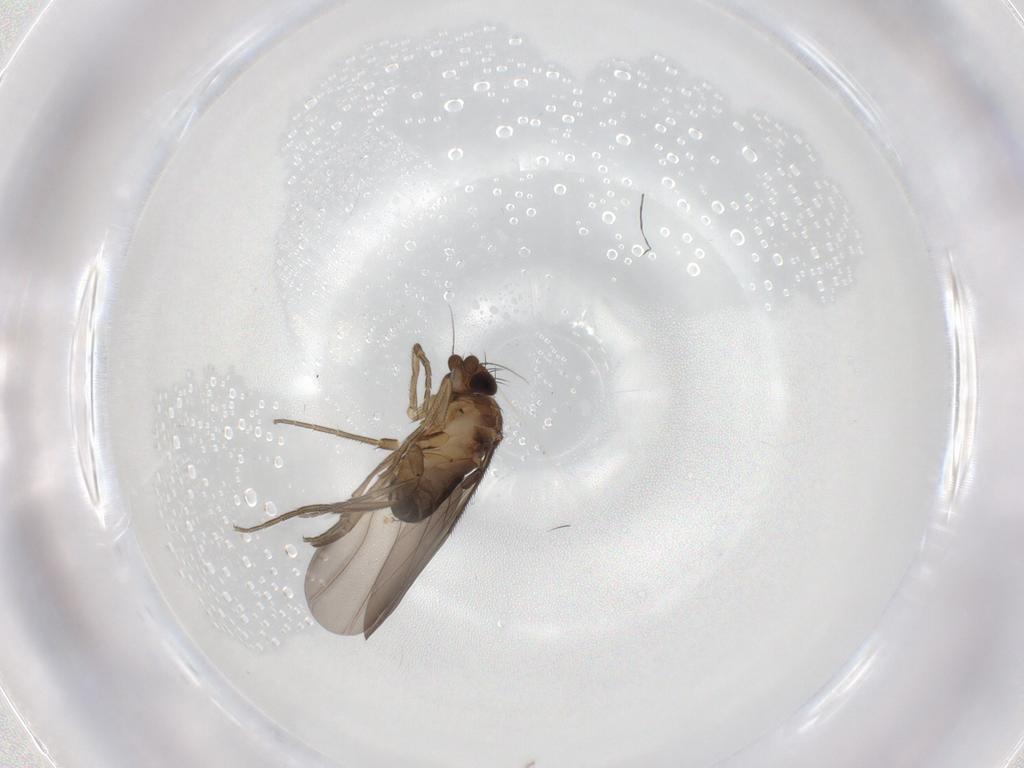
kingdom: Animalia
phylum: Arthropoda
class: Insecta
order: Diptera
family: Phoridae
